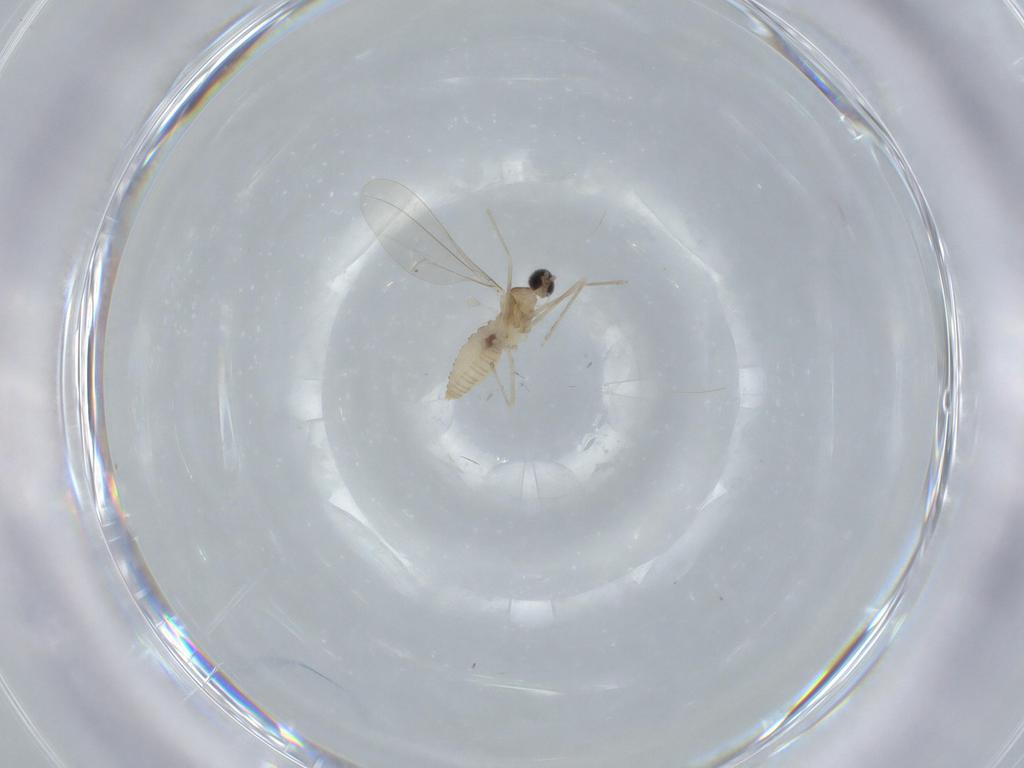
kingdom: Animalia
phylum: Arthropoda
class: Insecta
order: Diptera
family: Cecidomyiidae
